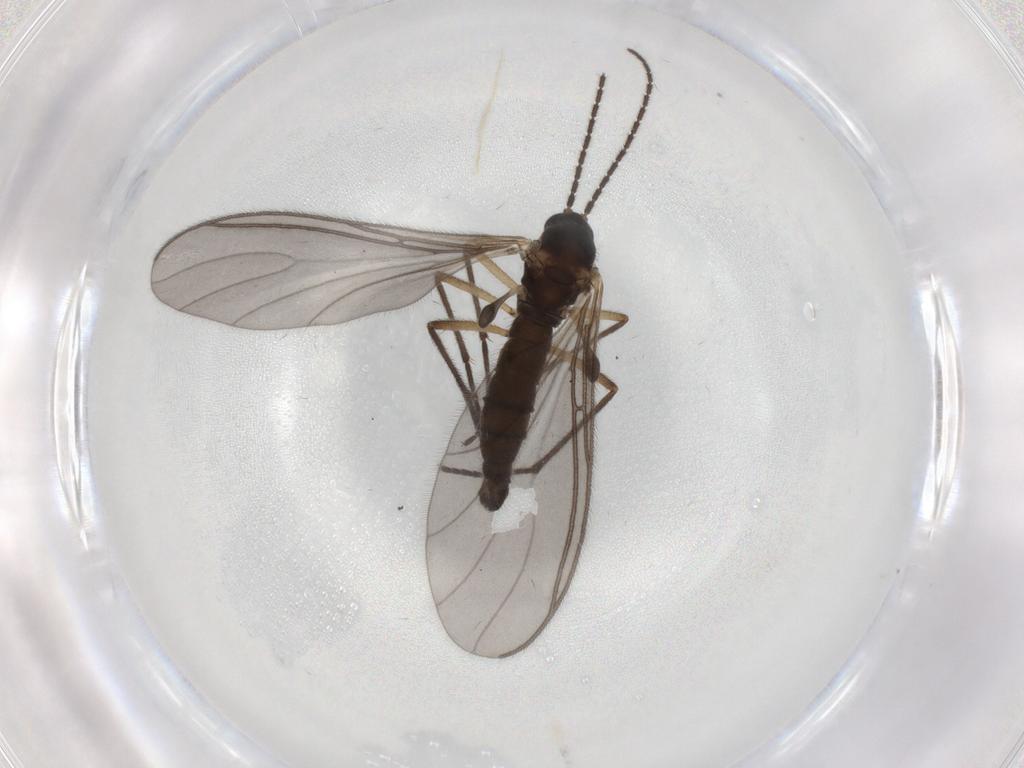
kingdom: Animalia
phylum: Arthropoda
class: Insecta
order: Diptera
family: Sciaridae
